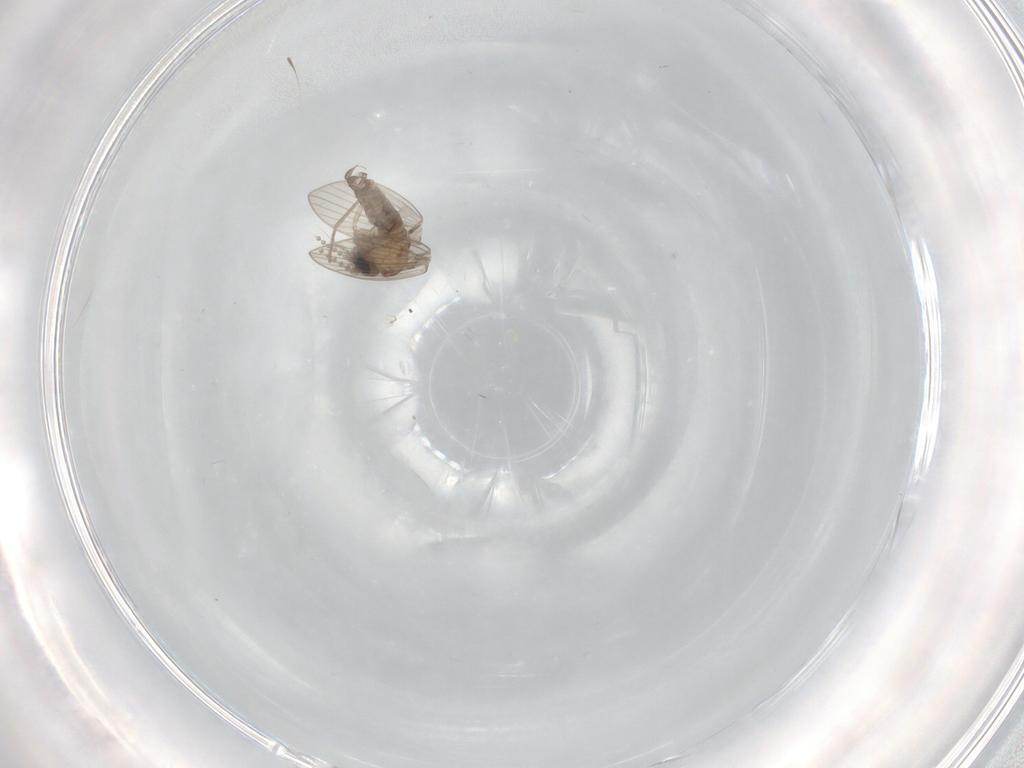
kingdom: Animalia
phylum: Arthropoda
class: Insecta
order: Diptera
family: Psychodidae
